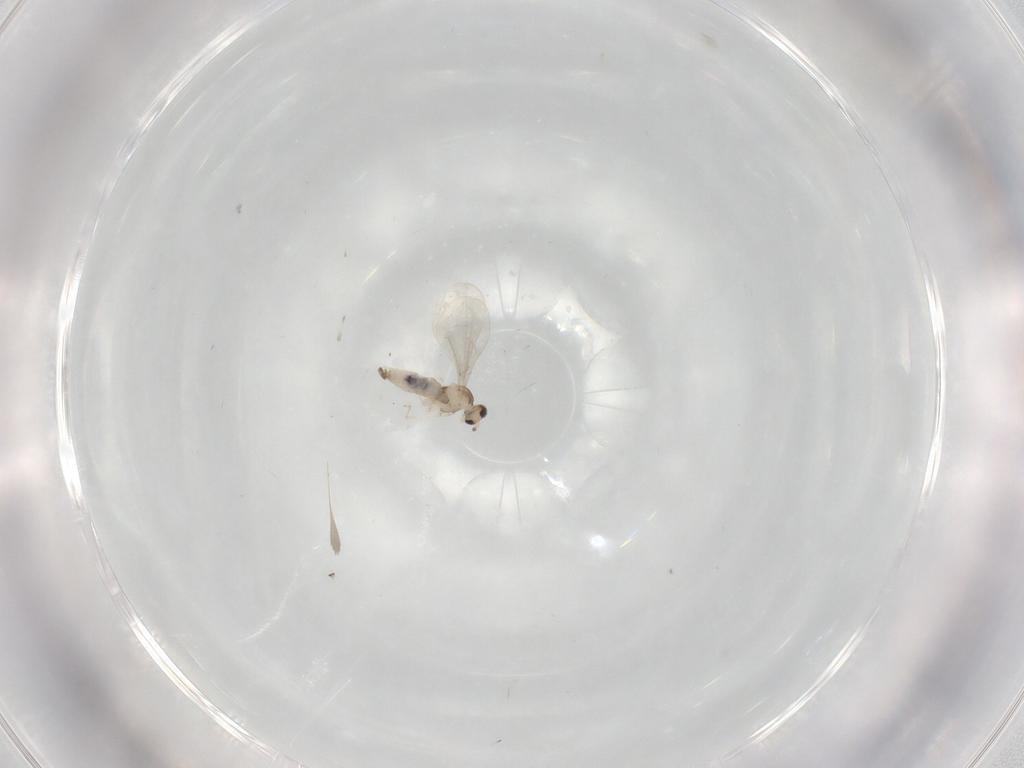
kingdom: Animalia
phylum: Arthropoda
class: Insecta
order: Diptera
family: Cecidomyiidae
